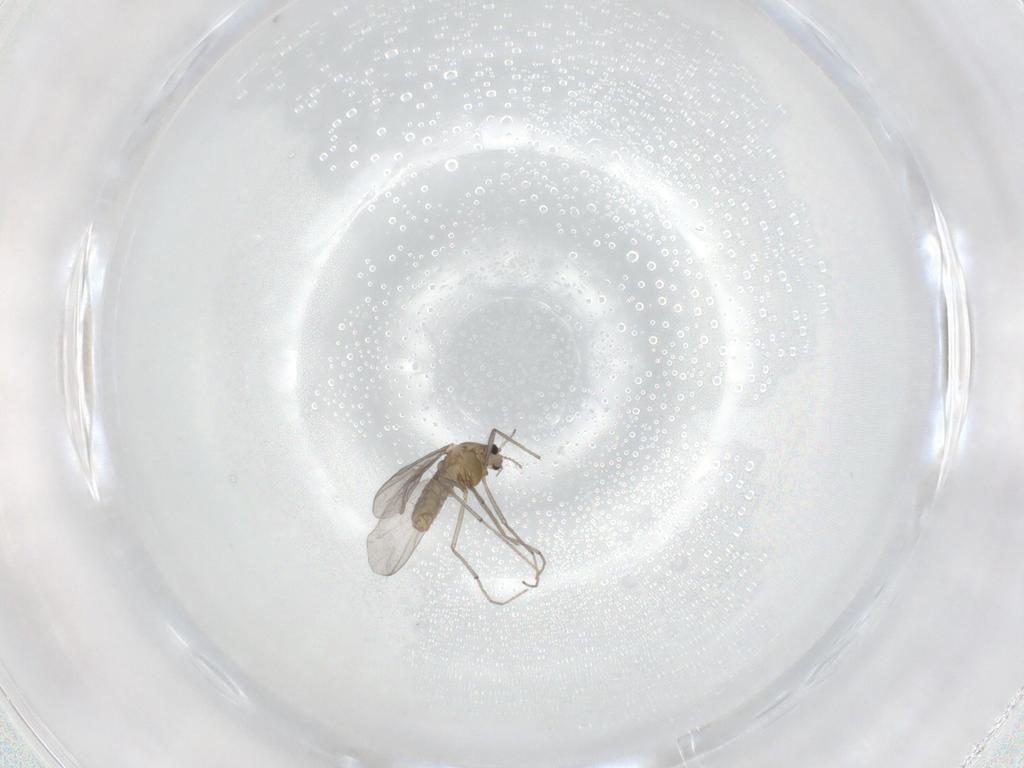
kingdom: Animalia
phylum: Arthropoda
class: Insecta
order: Diptera
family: Chironomidae
